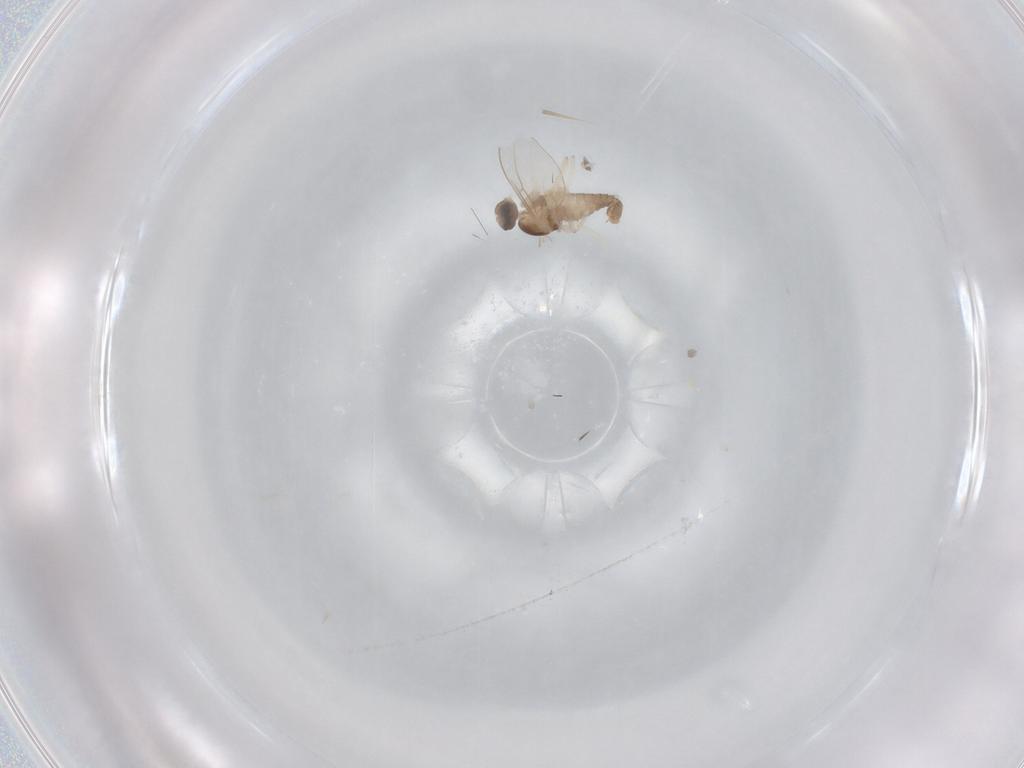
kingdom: Animalia
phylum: Arthropoda
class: Insecta
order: Diptera
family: Cecidomyiidae
